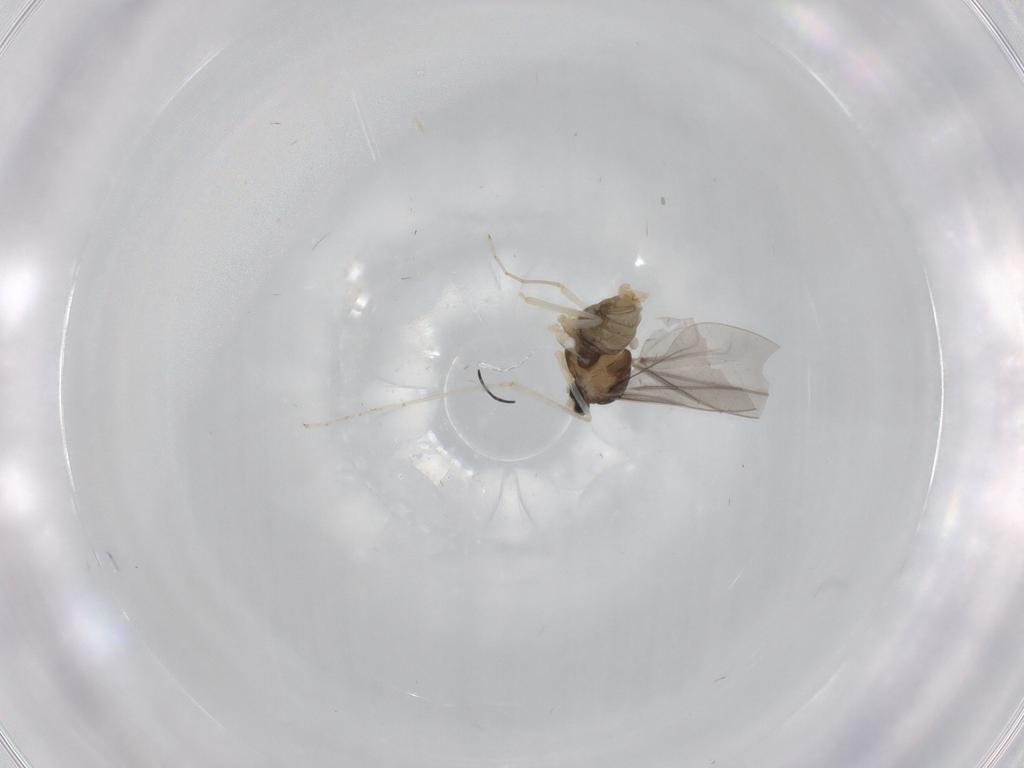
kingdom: Animalia
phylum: Arthropoda
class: Insecta
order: Diptera
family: Cecidomyiidae
